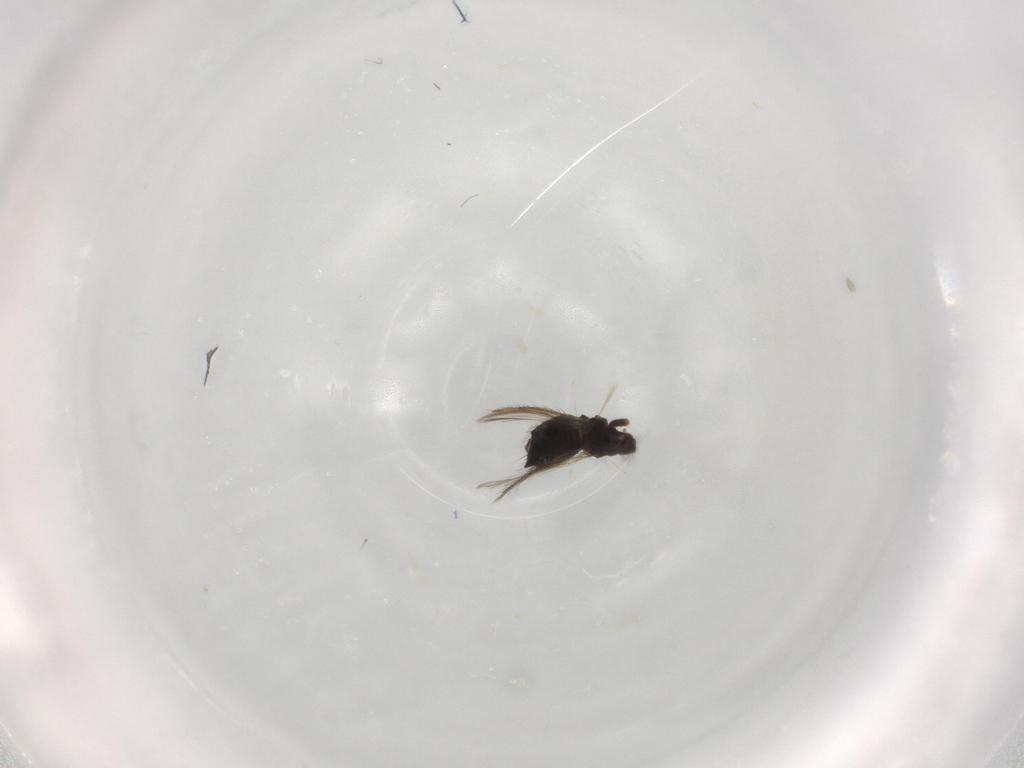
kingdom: Animalia
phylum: Arthropoda
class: Insecta
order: Thysanoptera
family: Thripidae
